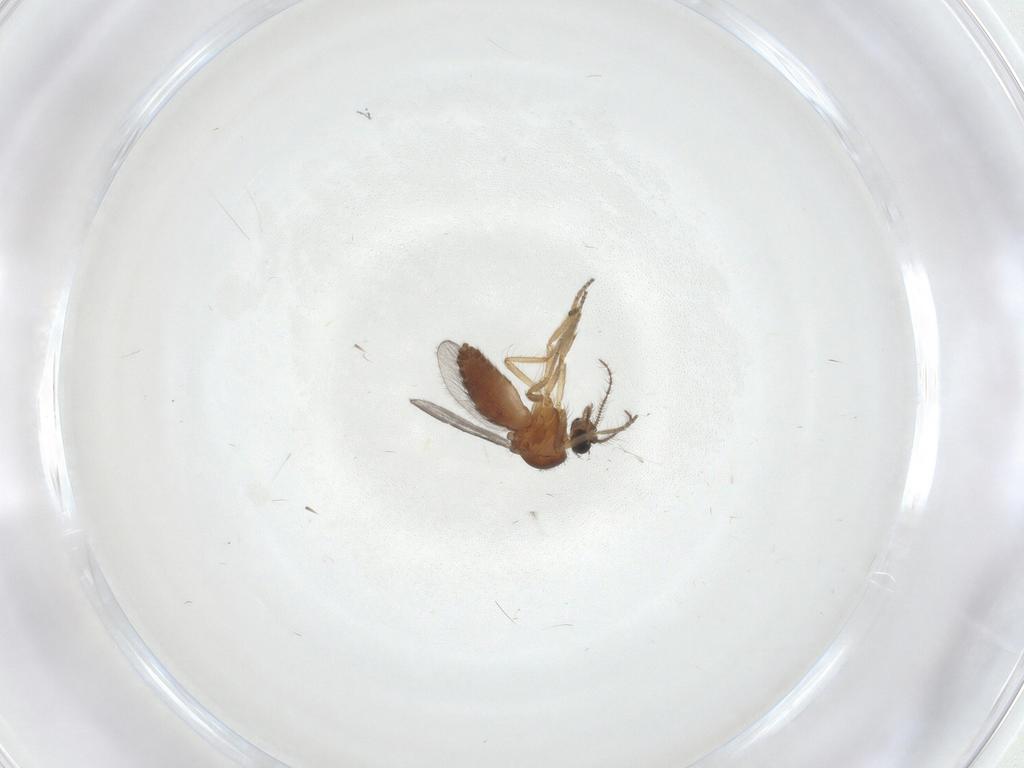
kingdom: Animalia
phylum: Arthropoda
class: Insecta
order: Diptera
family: Ceratopogonidae
